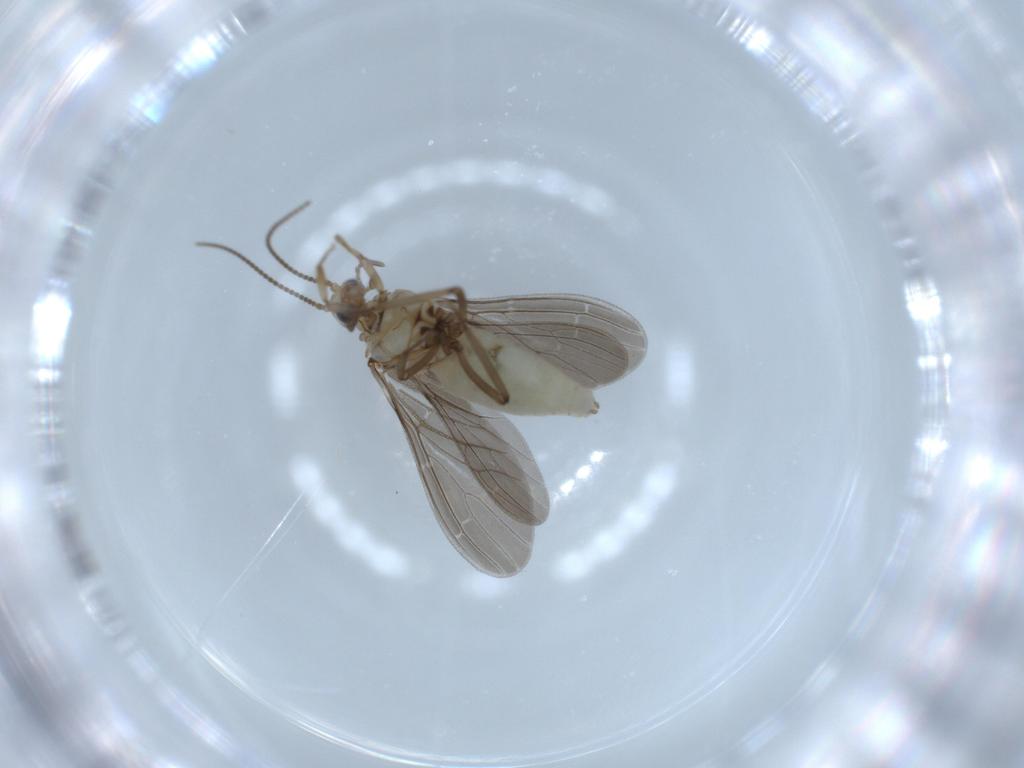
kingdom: Animalia
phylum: Arthropoda
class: Insecta
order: Neuroptera
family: Coniopterygidae
